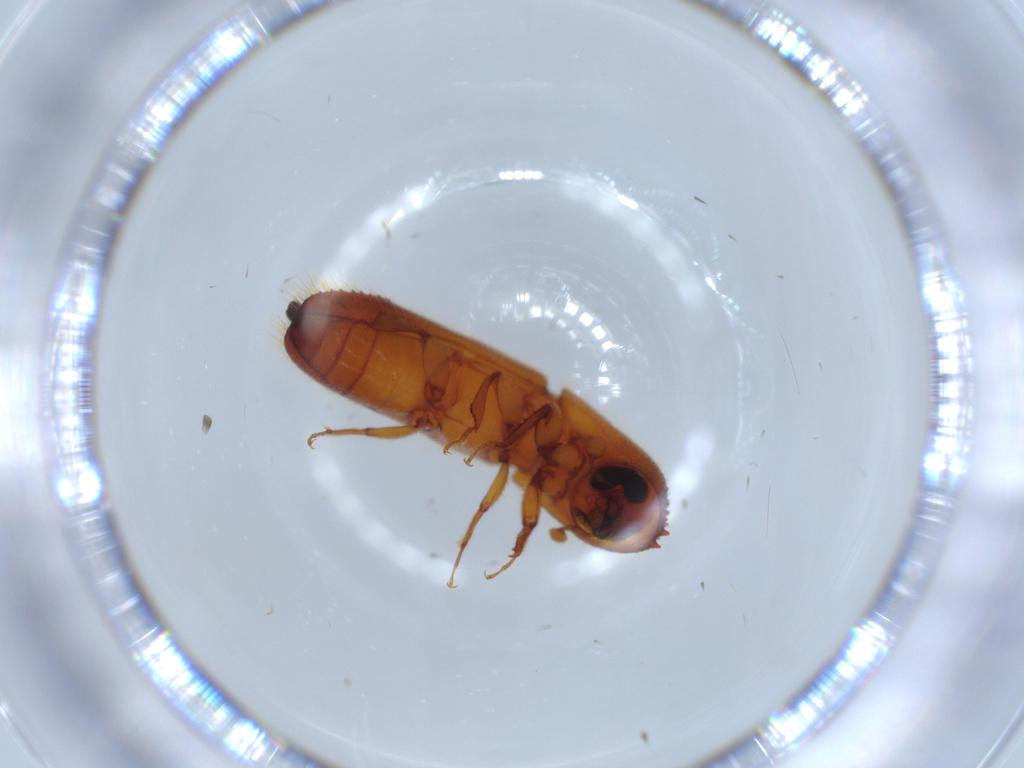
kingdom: Animalia
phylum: Arthropoda
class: Insecta
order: Coleoptera
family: Curculionidae
